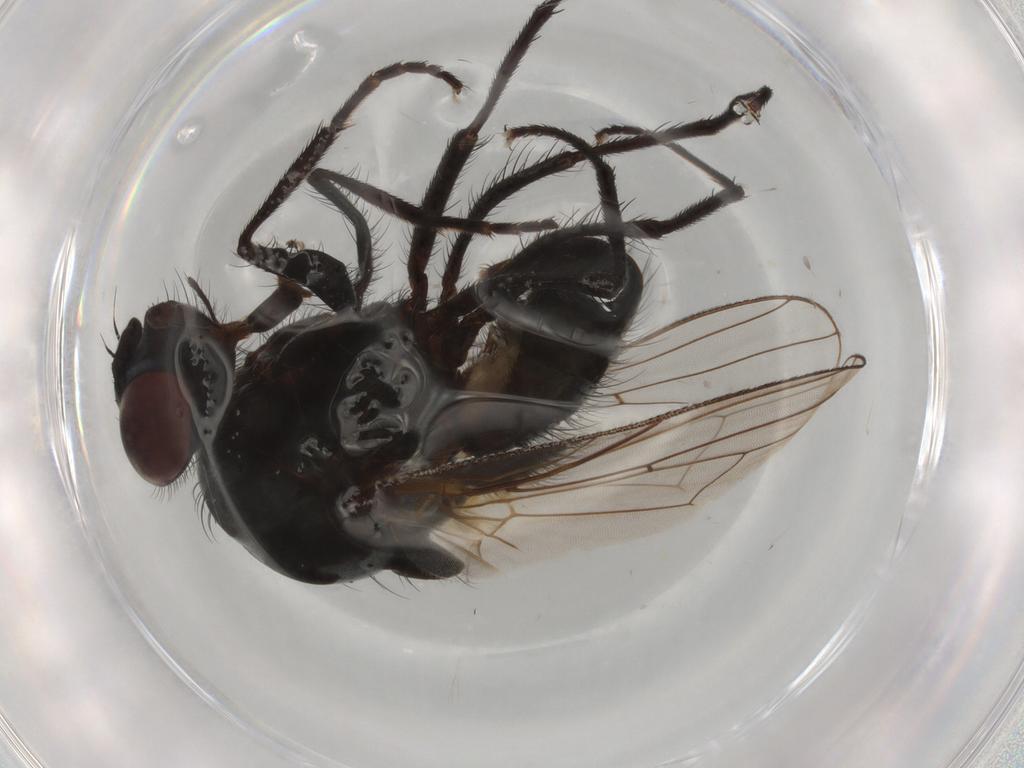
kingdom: Animalia
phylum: Arthropoda
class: Insecta
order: Diptera
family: Anthomyiidae
